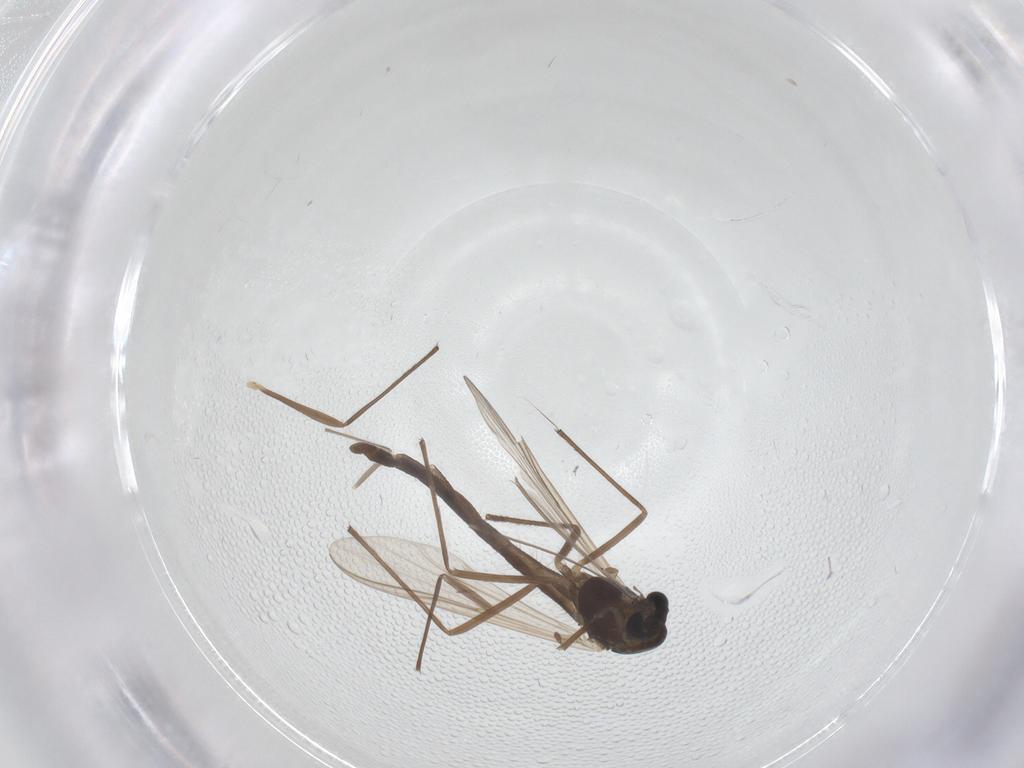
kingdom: Animalia
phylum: Arthropoda
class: Insecta
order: Diptera
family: Chironomidae
